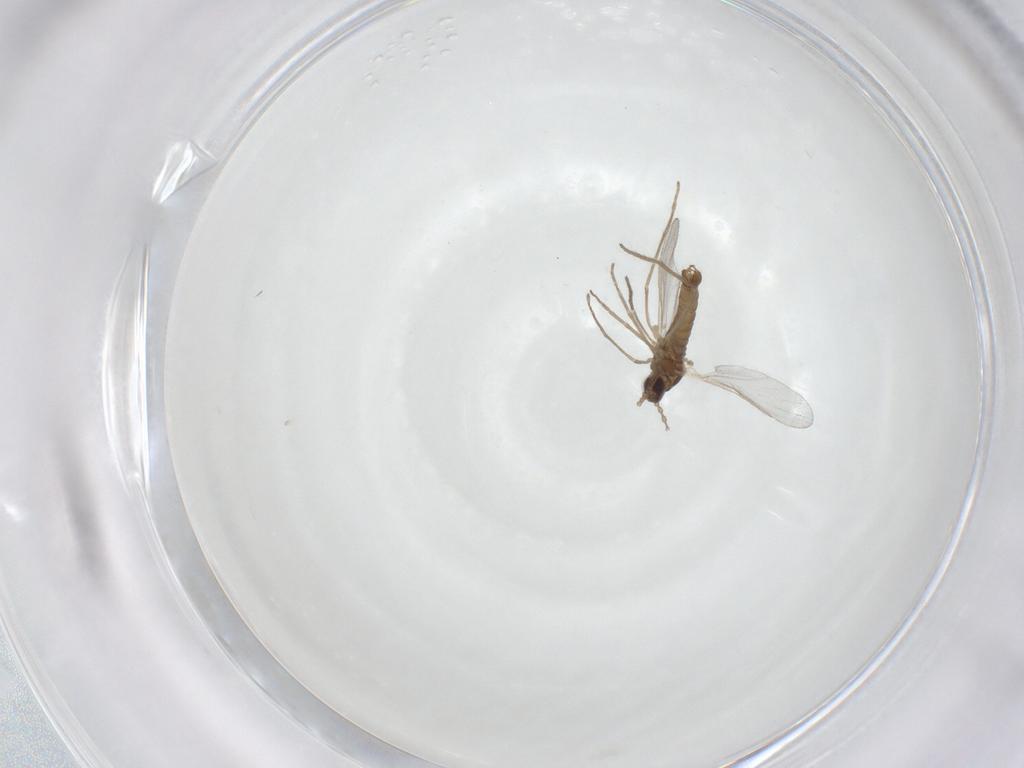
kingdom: Animalia
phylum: Arthropoda
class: Insecta
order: Diptera
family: Cecidomyiidae
